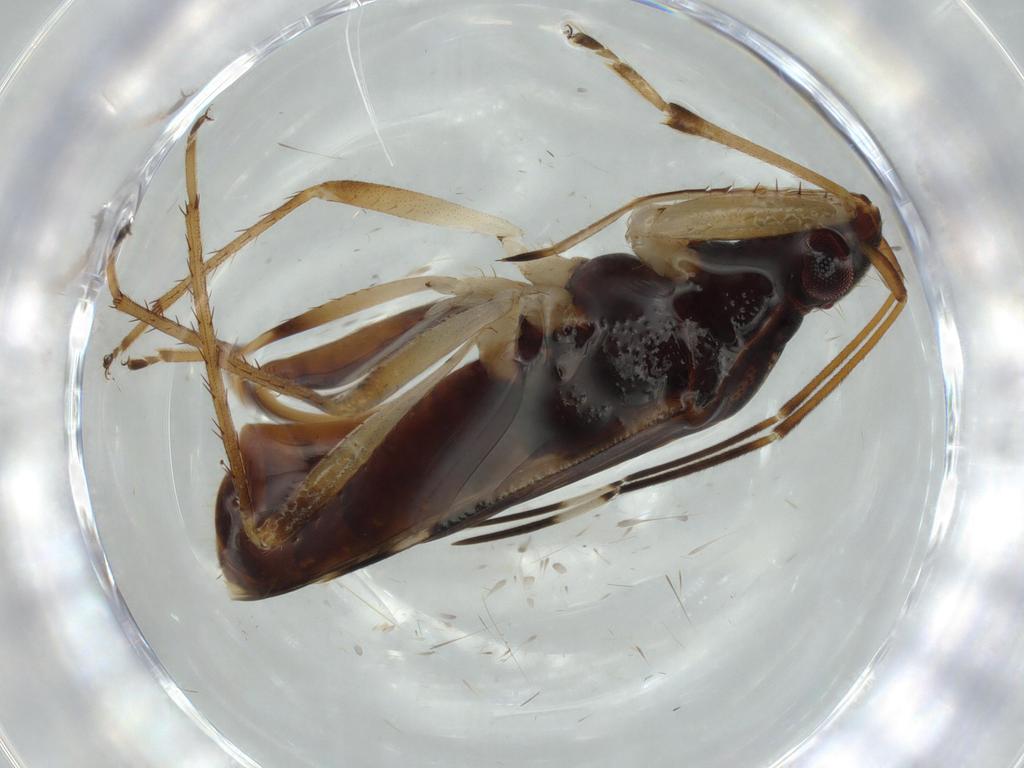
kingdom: Animalia
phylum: Arthropoda
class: Insecta
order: Hemiptera
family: Rhyparochromidae
